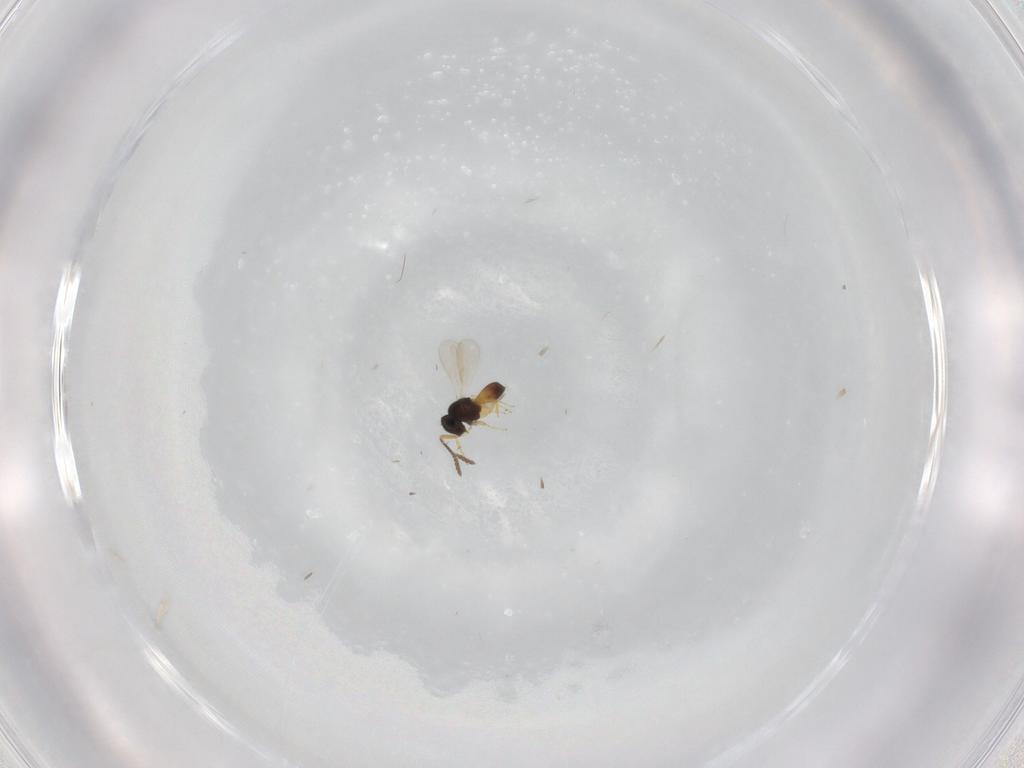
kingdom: Animalia
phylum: Arthropoda
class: Insecta
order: Hymenoptera
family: Scelionidae
